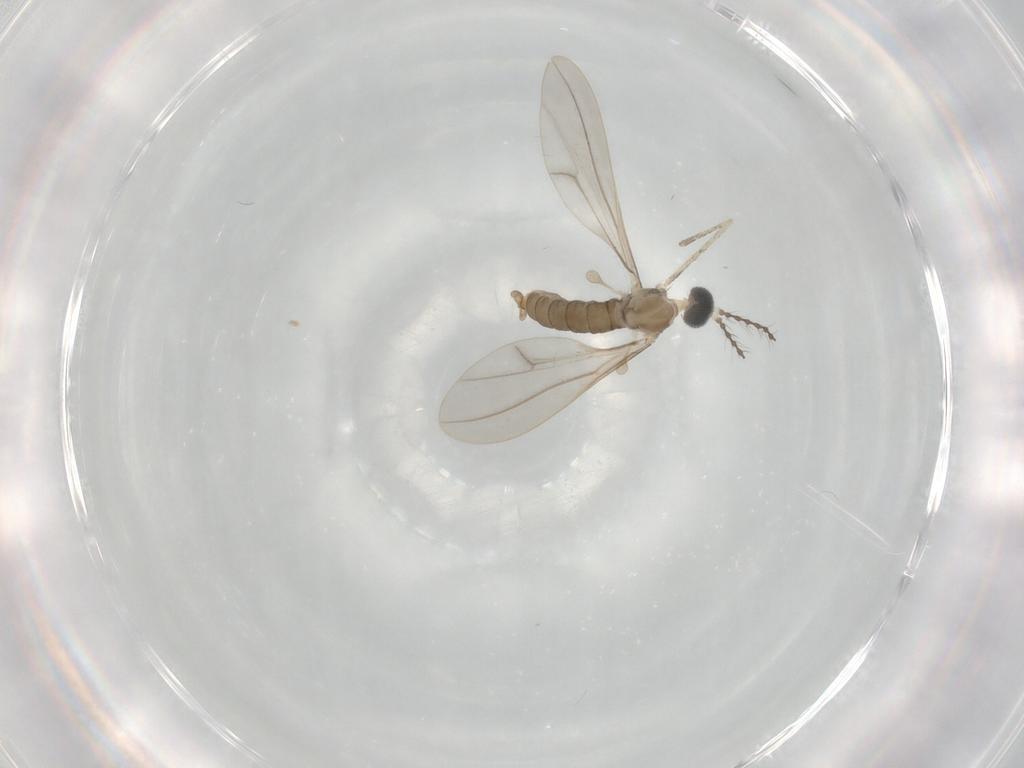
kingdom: Animalia
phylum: Arthropoda
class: Insecta
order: Diptera
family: Cecidomyiidae
